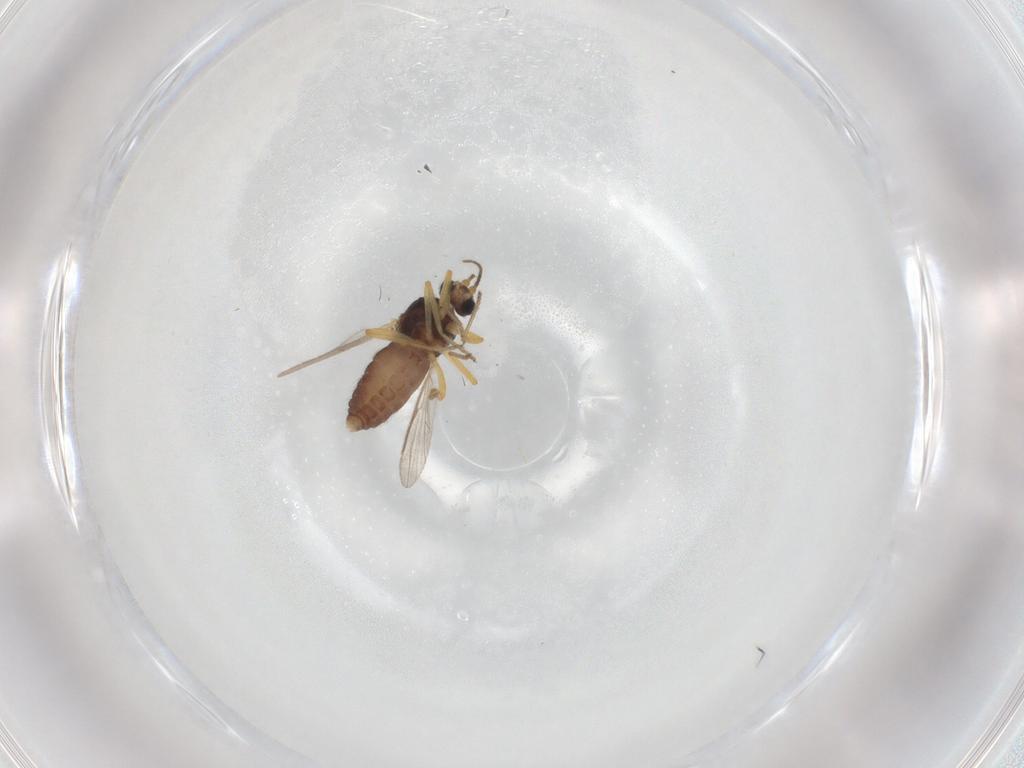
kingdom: Animalia
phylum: Arthropoda
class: Insecta
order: Diptera
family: Ceratopogonidae
